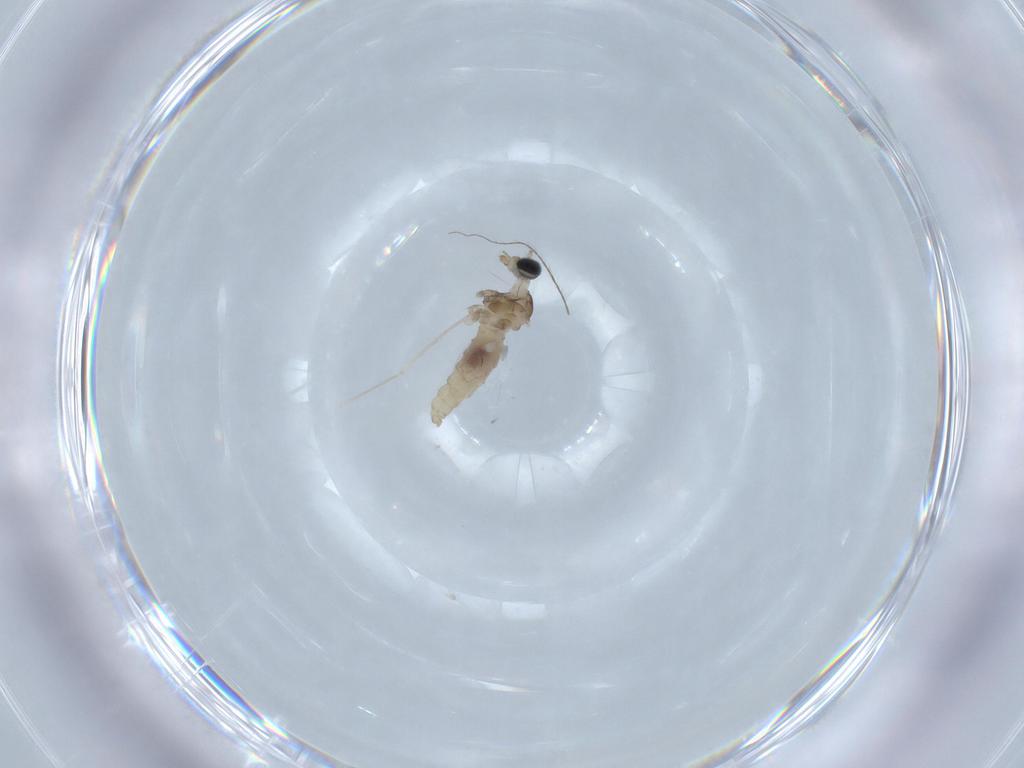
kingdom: Animalia
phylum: Arthropoda
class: Insecta
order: Diptera
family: Cecidomyiidae
